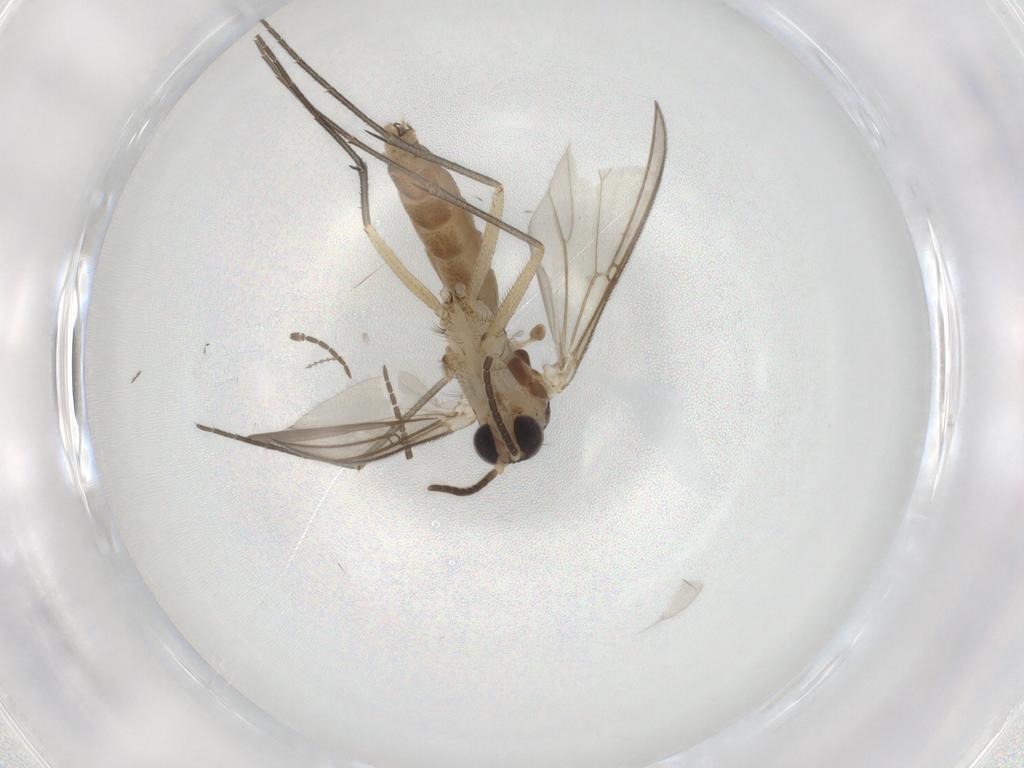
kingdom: Animalia
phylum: Arthropoda
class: Insecta
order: Diptera
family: Mycetophilidae
